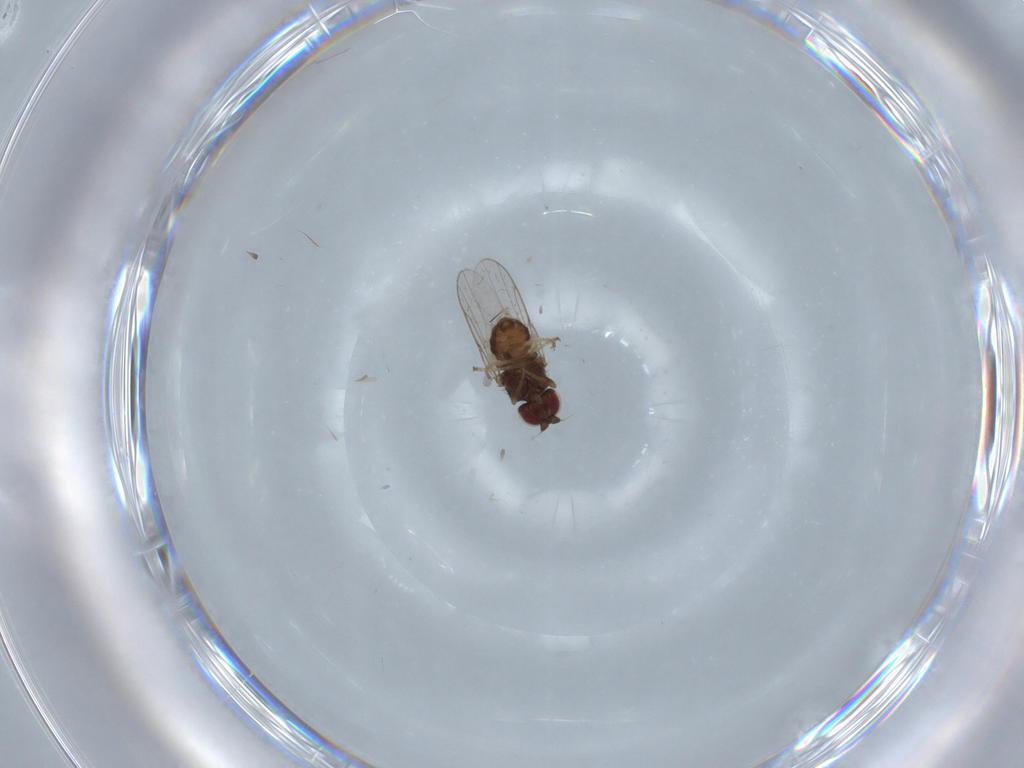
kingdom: Animalia
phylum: Arthropoda
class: Insecta
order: Diptera
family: Chloropidae
